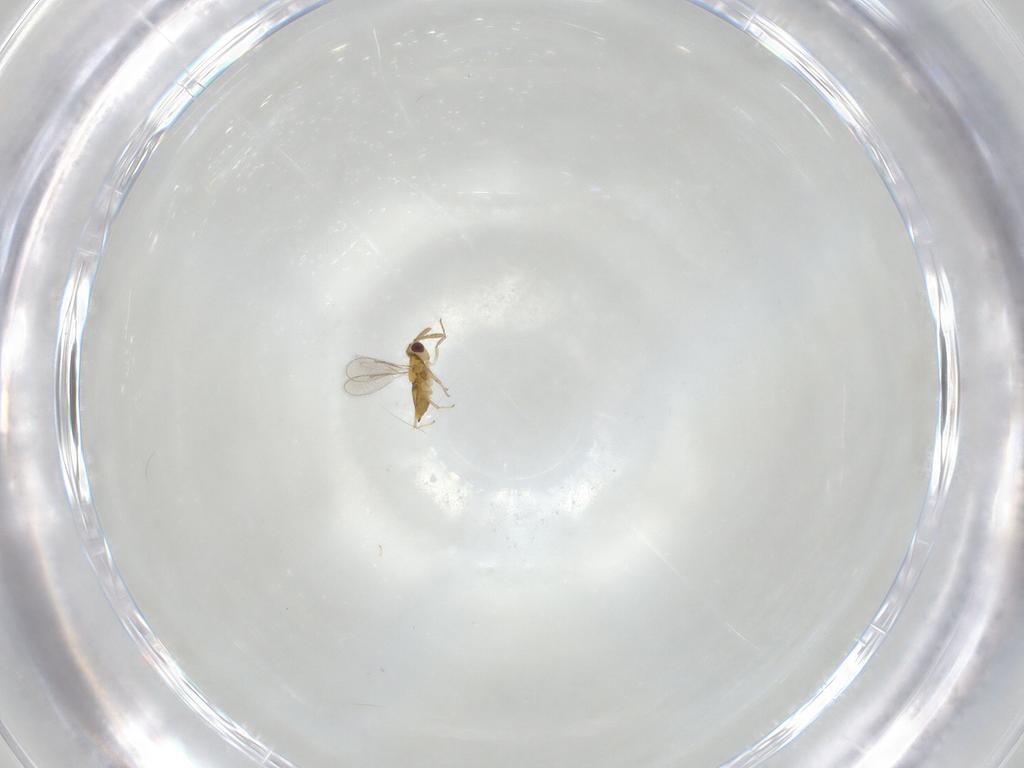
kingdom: Animalia
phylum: Arthropoda
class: Insecta
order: Hymenoptera
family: Aphelinidae
